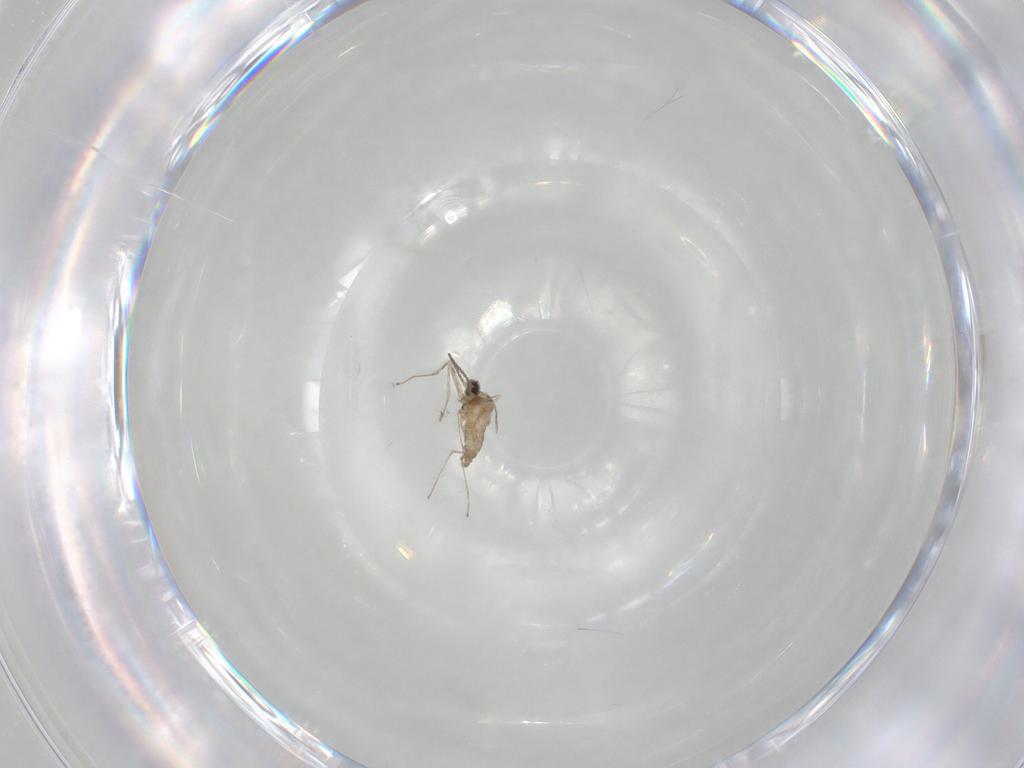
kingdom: Animalia
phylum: Arthropoda
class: Insecta
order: Diptera
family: Cecidomyiidae
